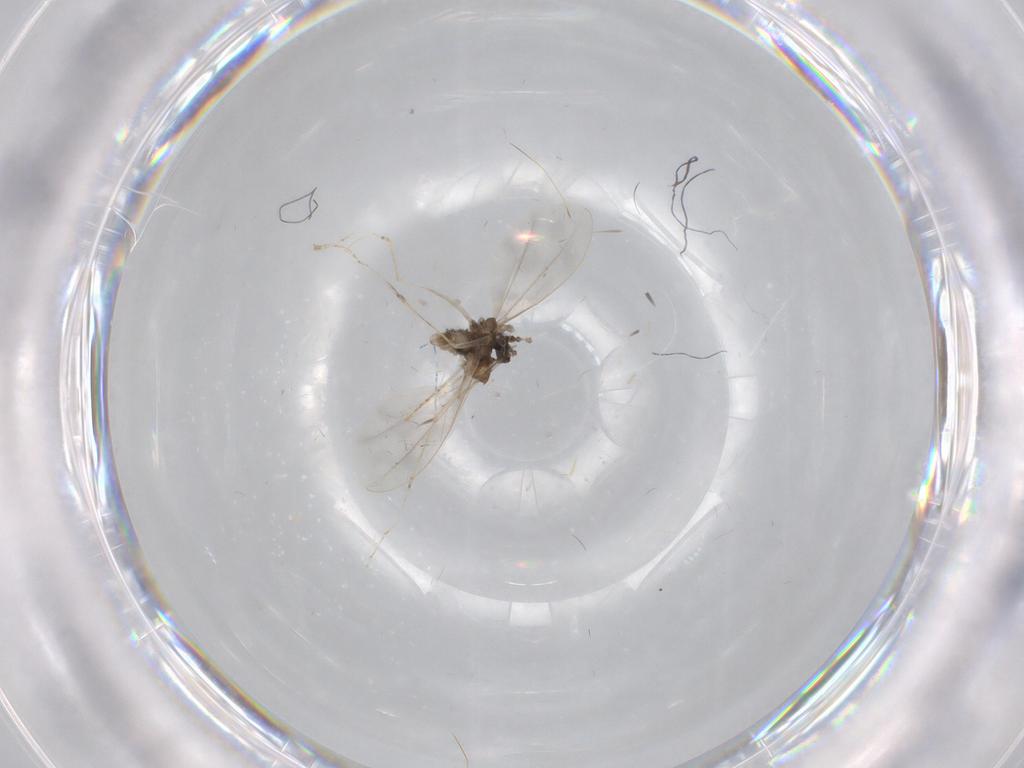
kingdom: Animalia
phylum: Arthropoda
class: Insecta
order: Diptera
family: Cecidomyiidae
